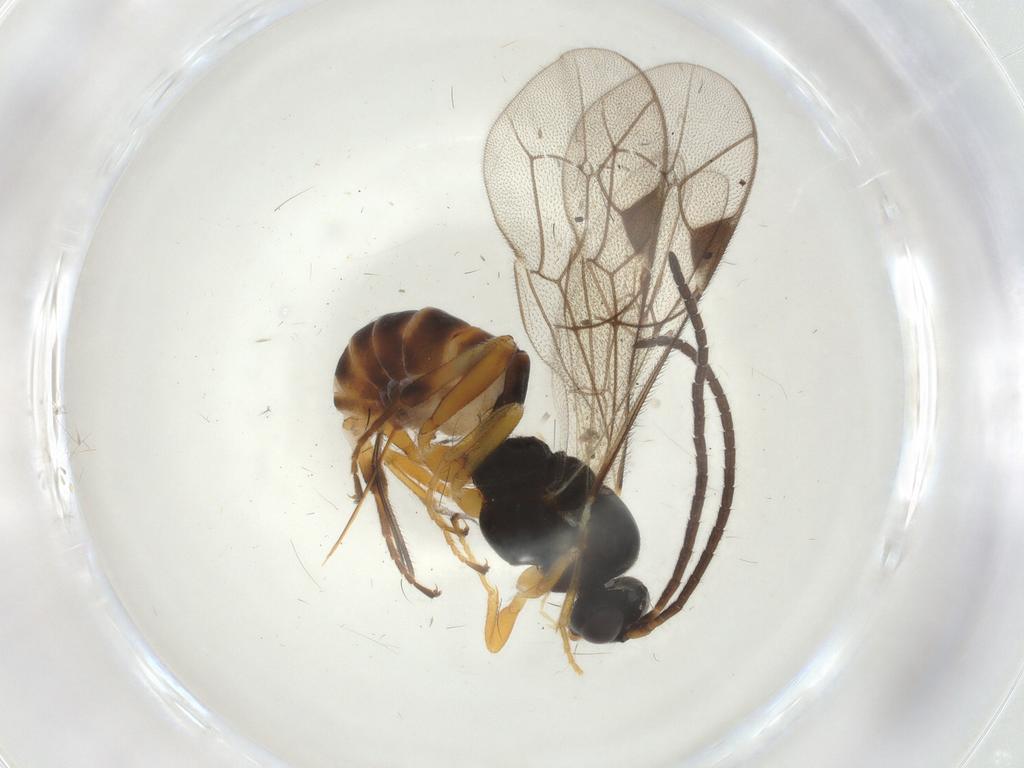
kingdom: Animalia
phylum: Arthropoda
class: Insecta
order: Hymenoptera
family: Ichneumonidae
